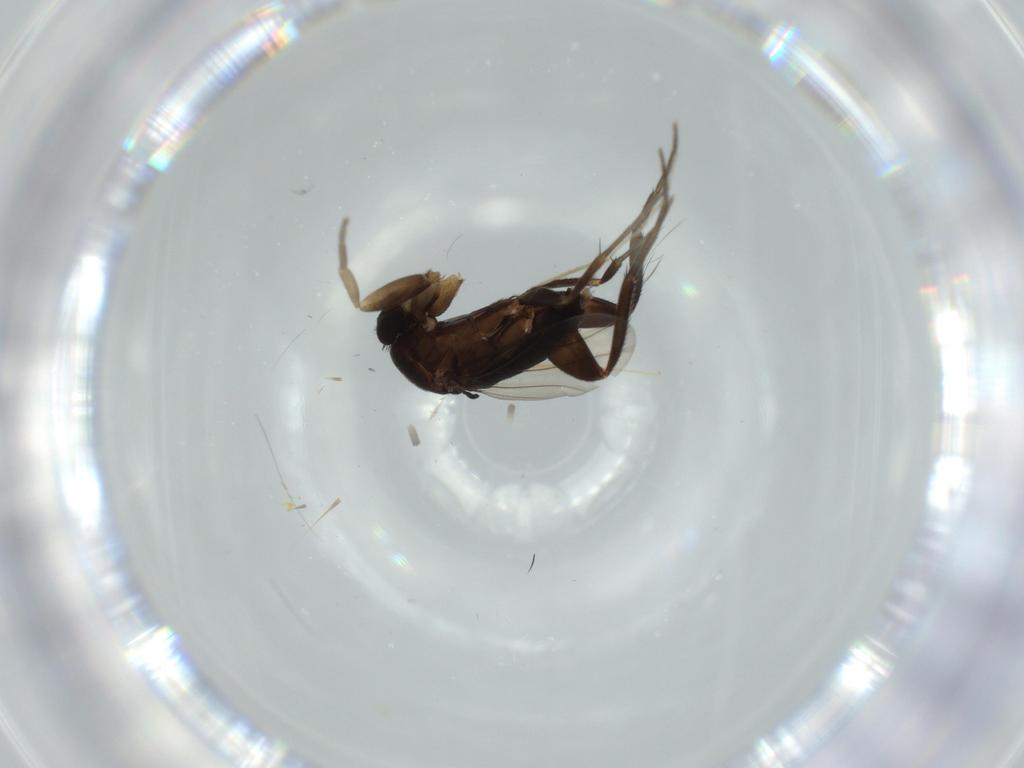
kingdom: Animalia
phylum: Arthropoda
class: Insecta
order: Diptera
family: Phoridae
